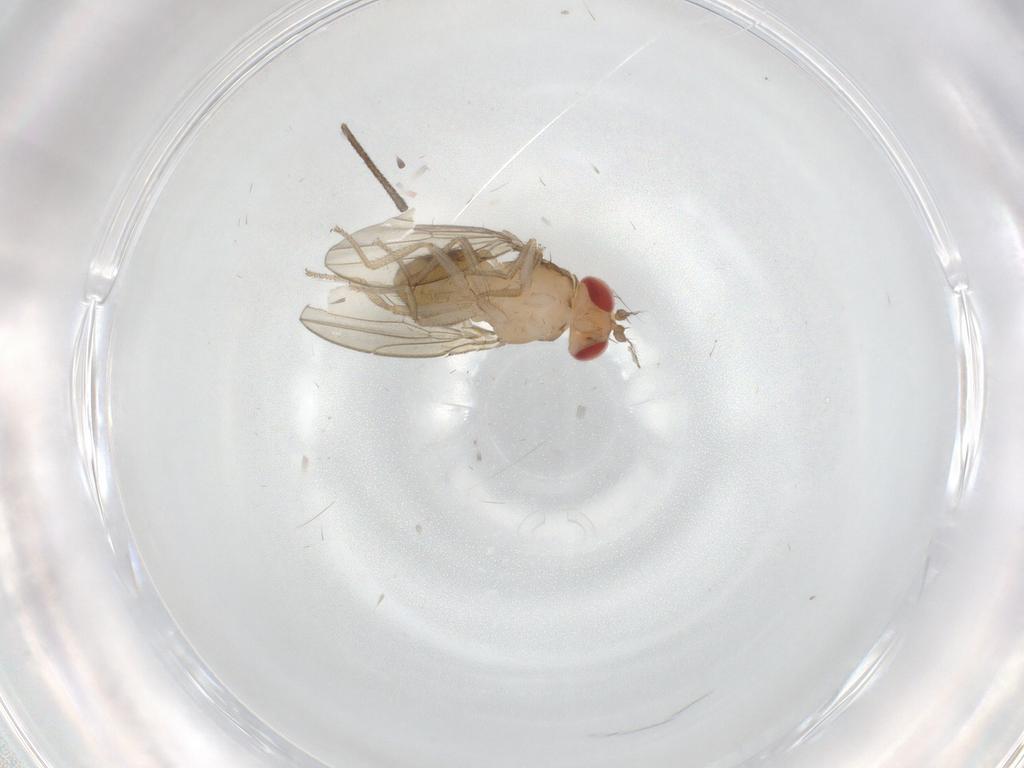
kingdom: Animalia
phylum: Arthropoda
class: Insecta
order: Diptera
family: Drosophilidae
